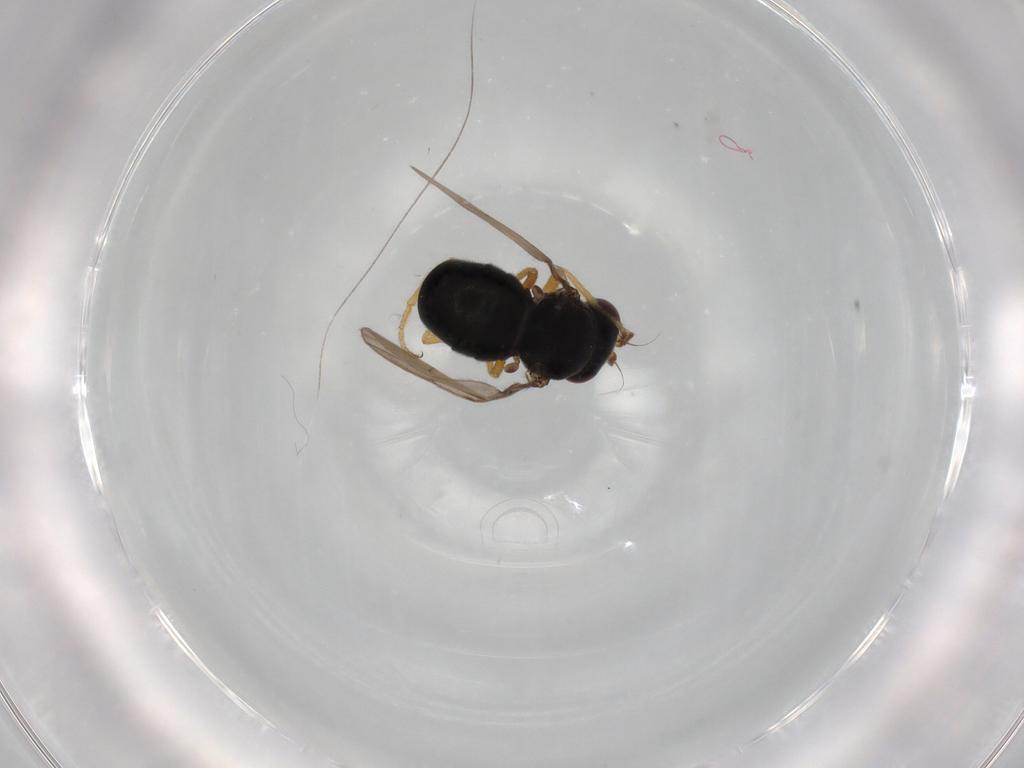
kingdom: Animalia
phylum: Arthropoda
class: Insecta
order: Diptera
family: Ephydridae
